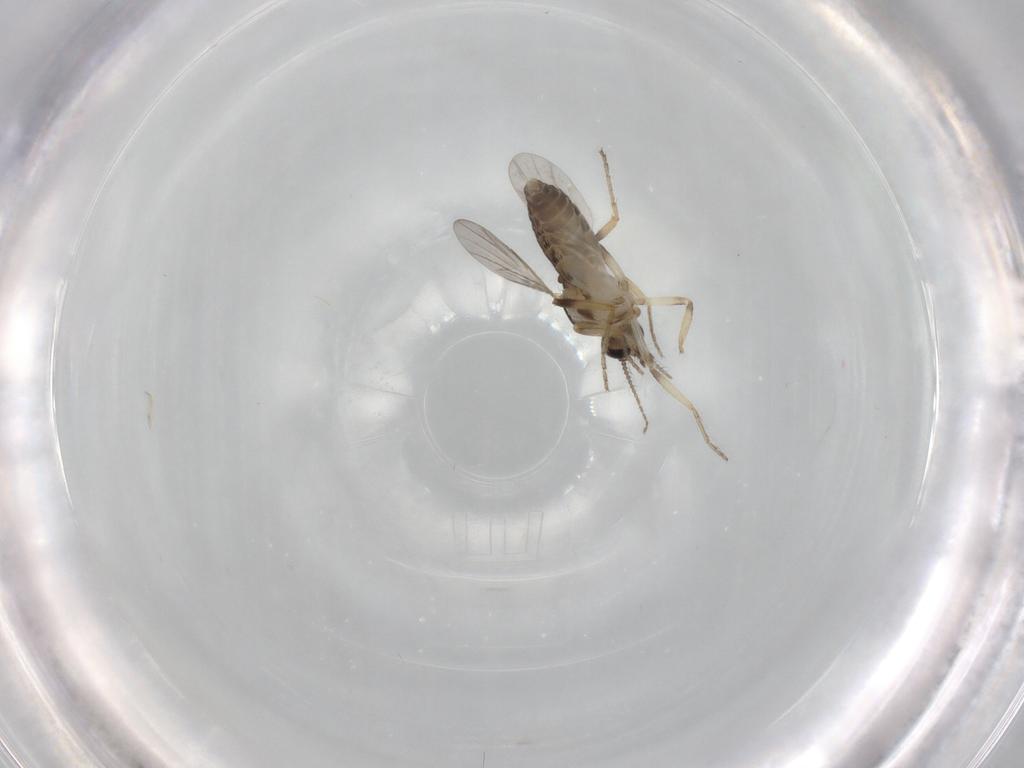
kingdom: Animalia
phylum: Arthropoda
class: Insecta
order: Diptera
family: Ceratopogonidae
